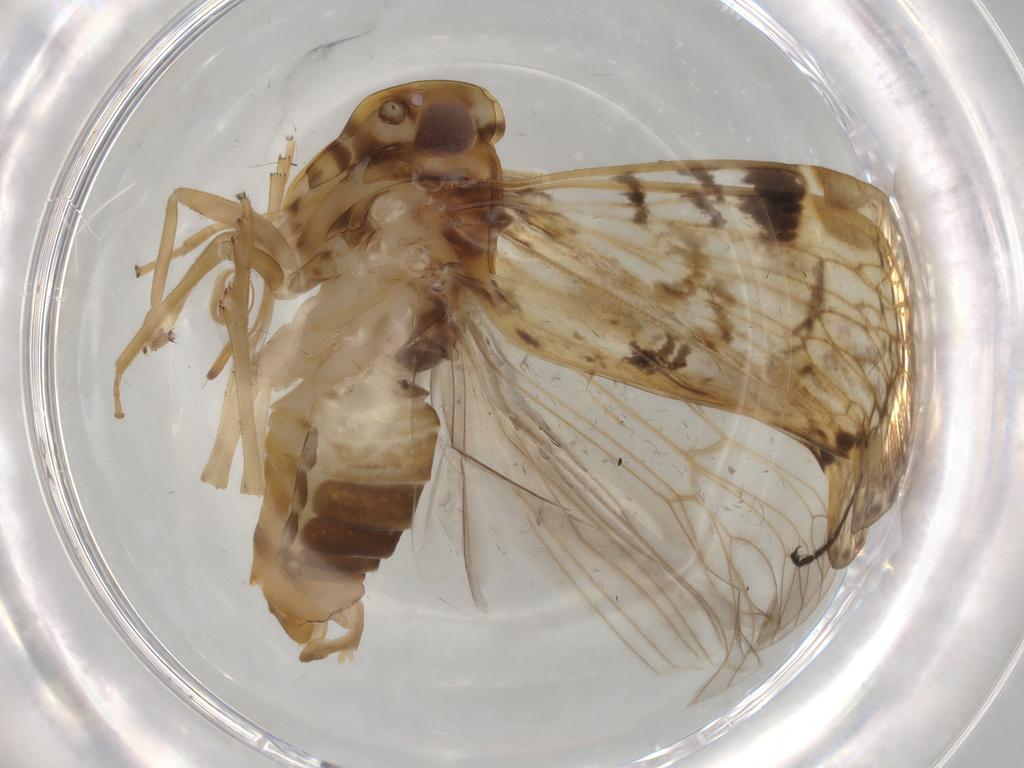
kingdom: Animalia
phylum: Arthropoda
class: Insecta
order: Hemiptera
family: Cixiidae
